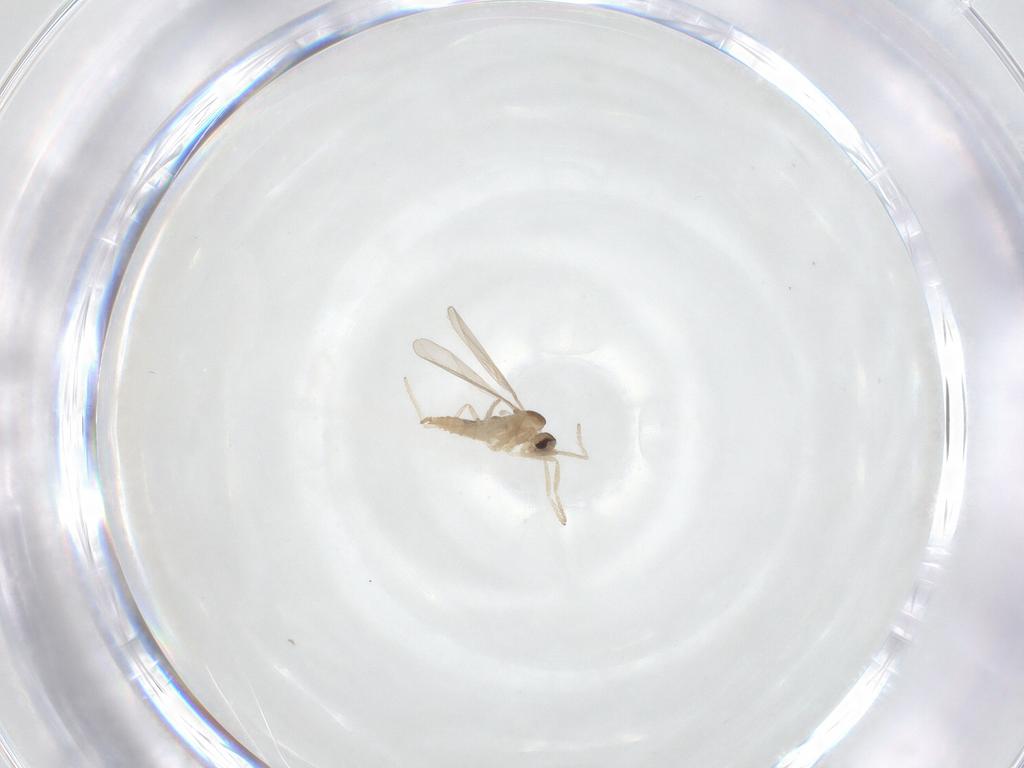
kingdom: Animalia
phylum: Arthropoda
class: Insecta
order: Diptera
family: Cecidomyiidae
